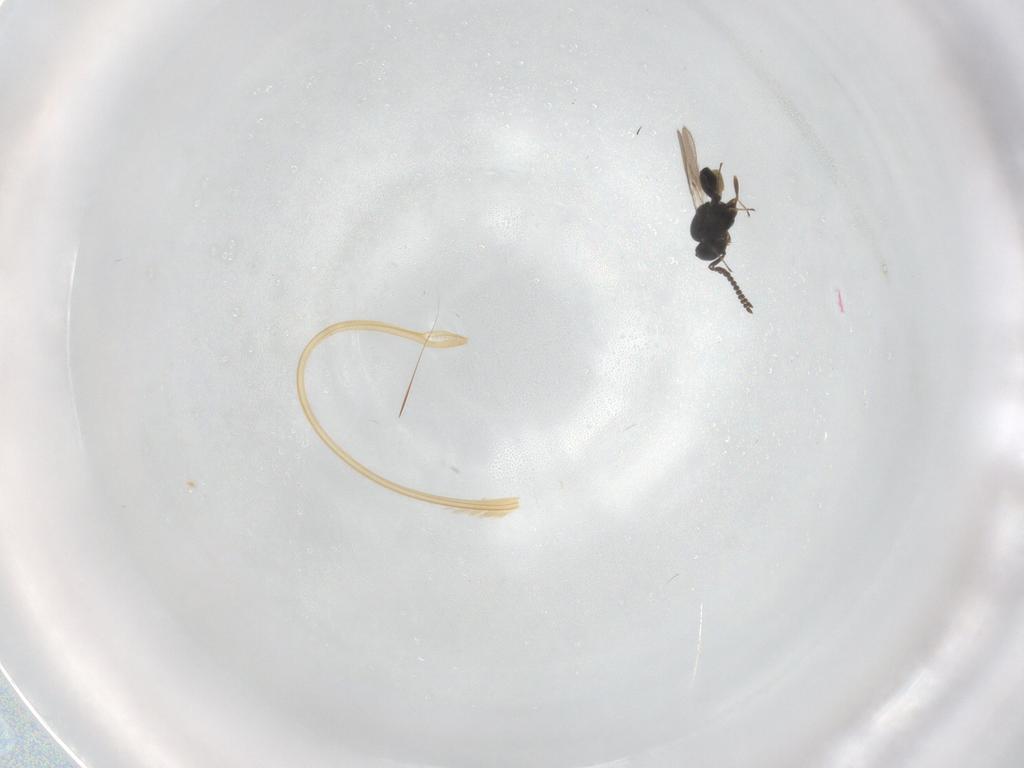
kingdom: Animalia
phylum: Arthropoda
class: Insecta
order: Hymenoptera
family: Scelionidae
